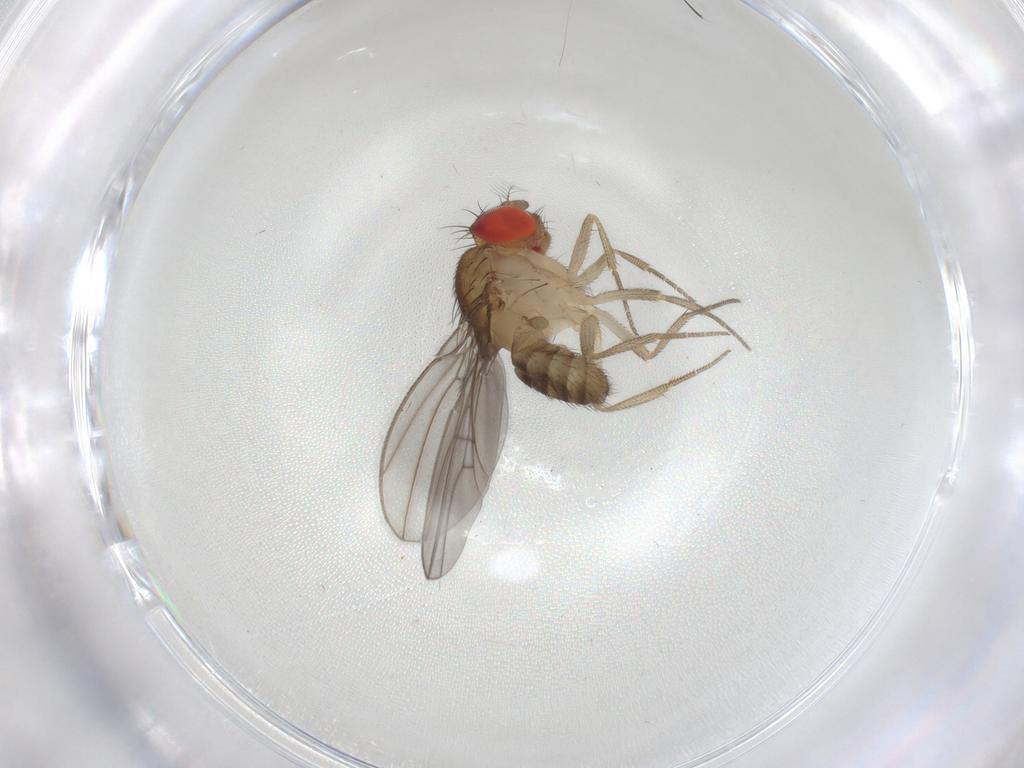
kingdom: Animalia
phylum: Arthropoda
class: Insecta
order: Diptera
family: Drosophilidae
